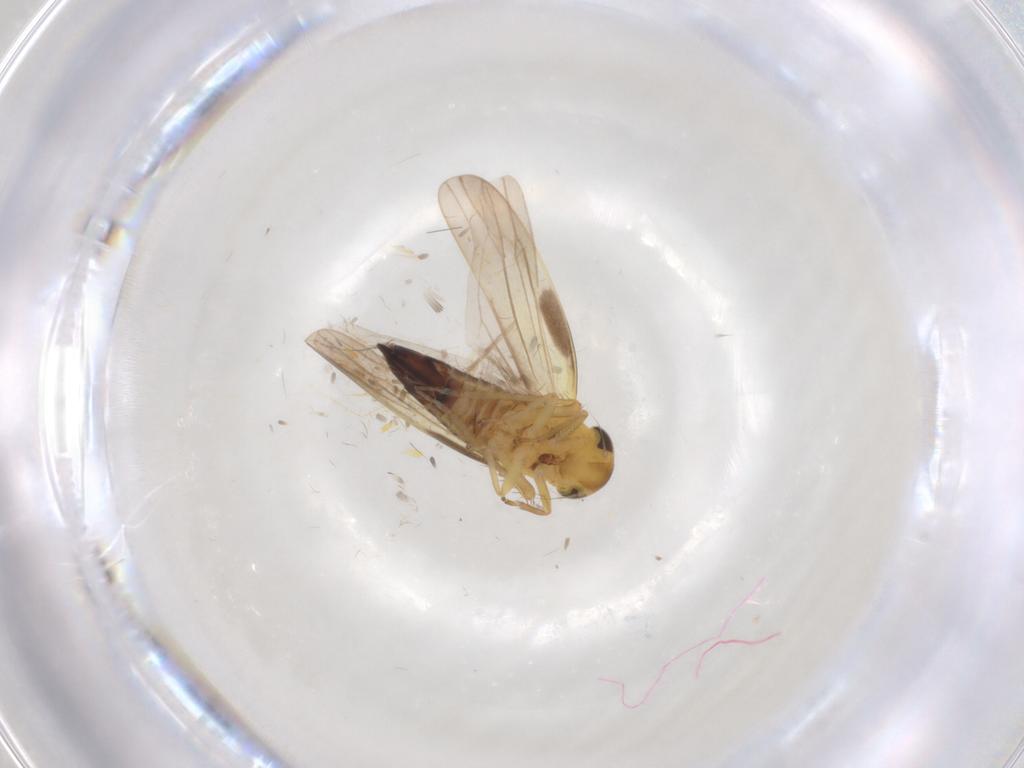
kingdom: Animalia
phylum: Arthropoda
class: Insecta
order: Hemiptera
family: Cicadellidae
